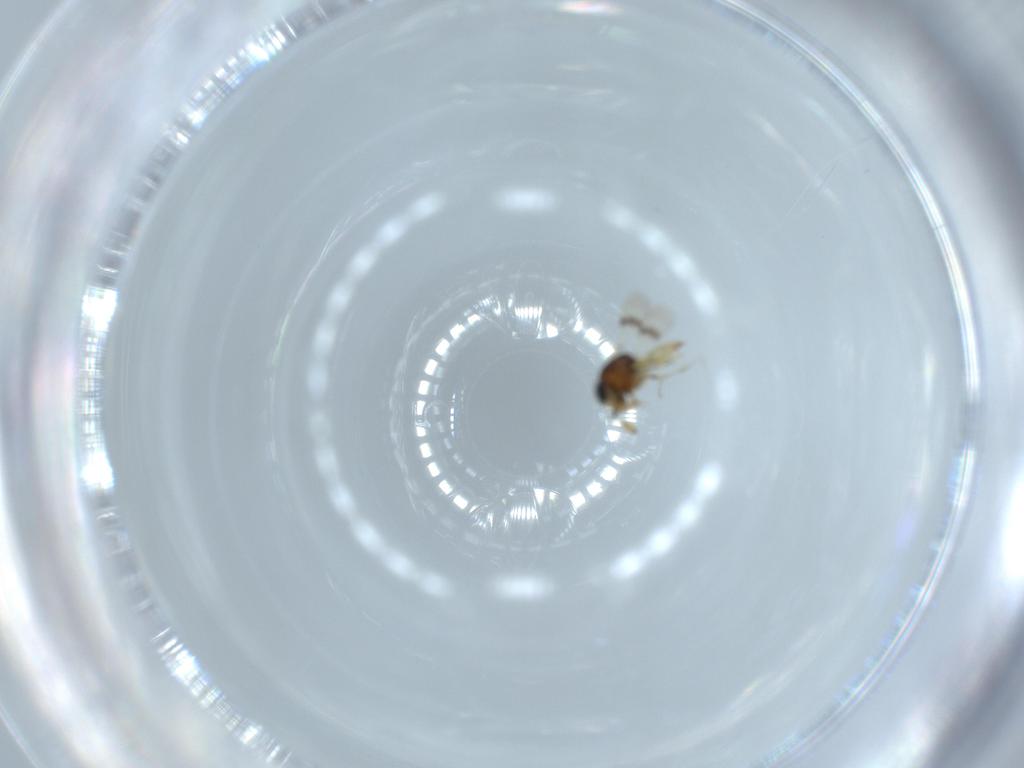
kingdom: Animalia
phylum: Arthropoda
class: Insecta
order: Hymenoptera
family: Scelionidae
